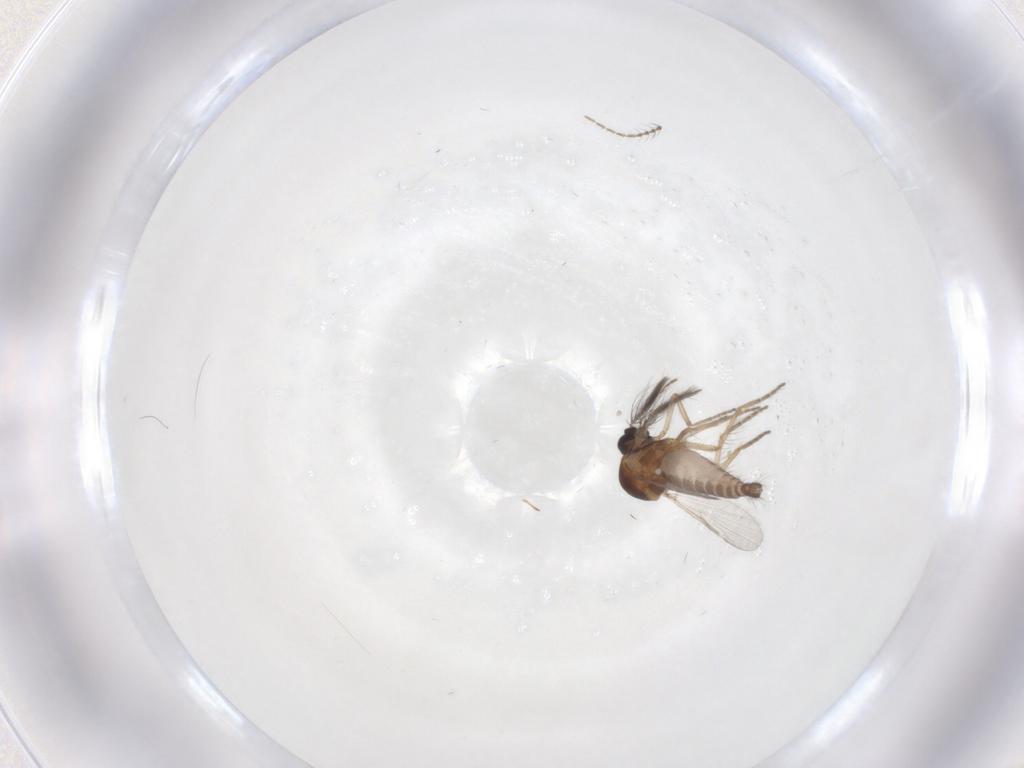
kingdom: Animalia
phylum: Arthropoda
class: Insecta
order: Diptera
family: Ceratopogonidae
